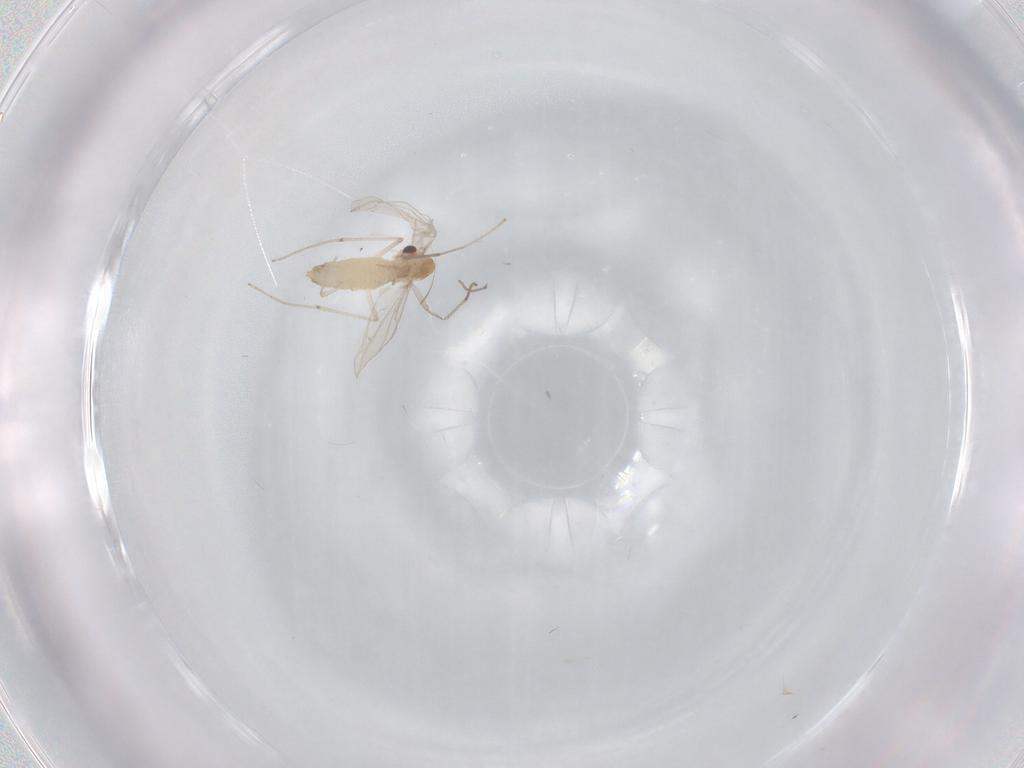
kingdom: Animalia
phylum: Arthropoda
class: Insecta
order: Diptera
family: Chironomidae
